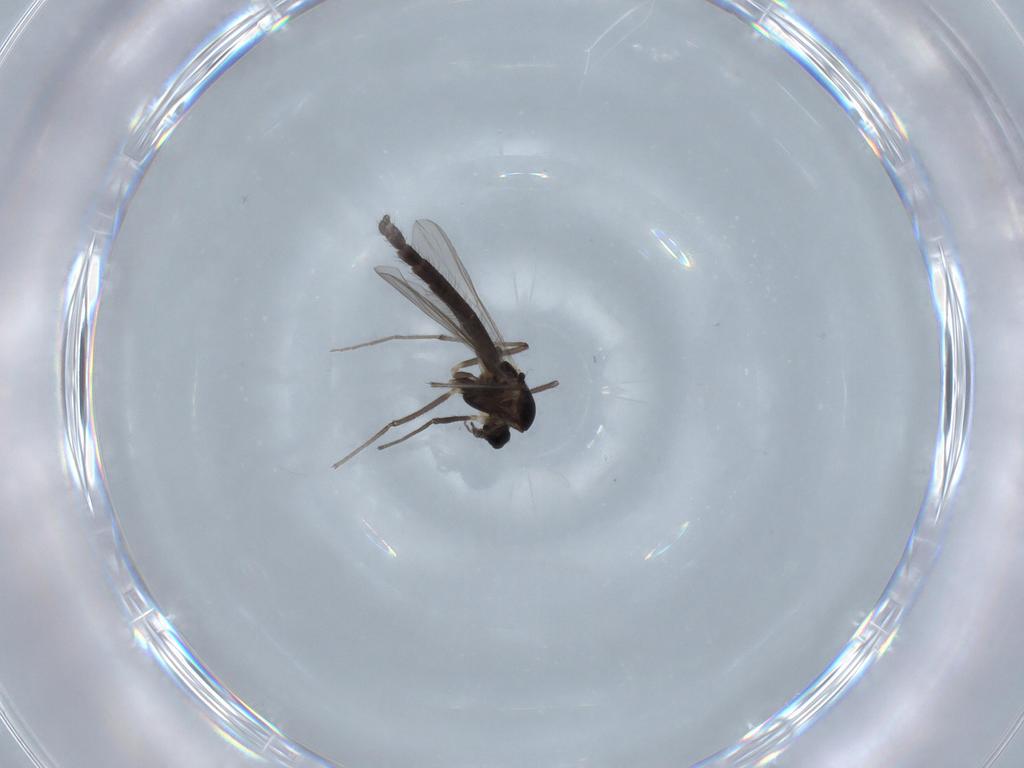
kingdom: Animalia
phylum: Arthropoda
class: Insecta
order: Diptera
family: Chironomidae
